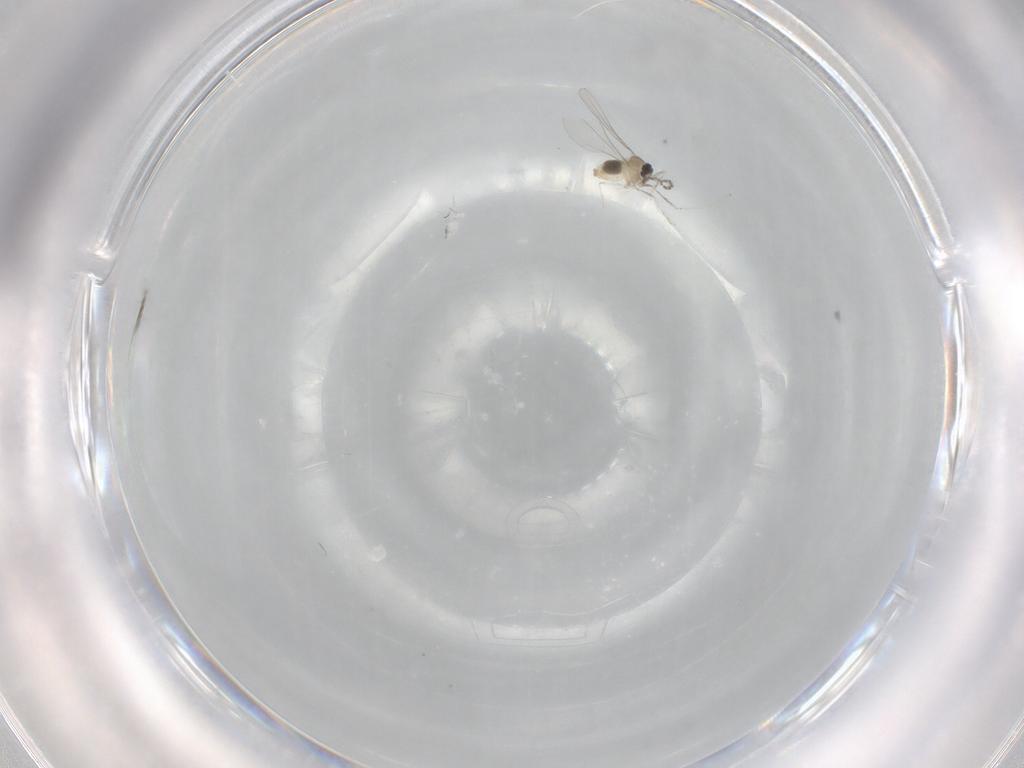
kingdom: Animalia
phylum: Arthropoda
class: Insecta
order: Diptera
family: Cecidomyiidae
